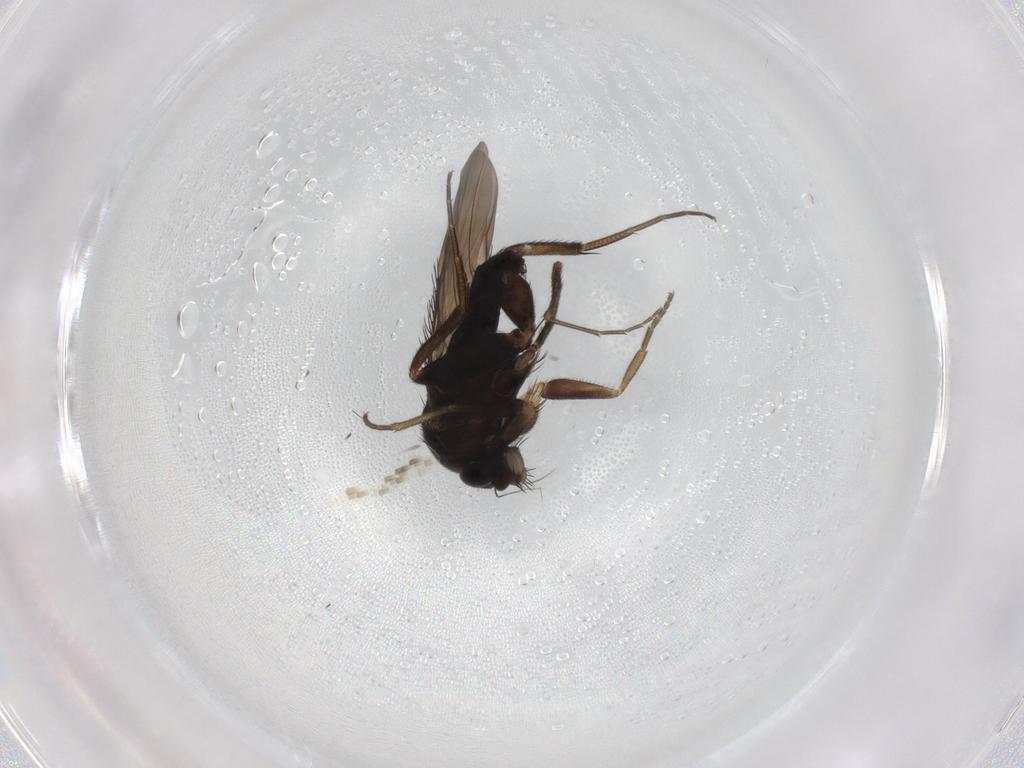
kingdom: Animalia
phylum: Arthropoda
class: Insecta
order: Diptera
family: Phoridae
